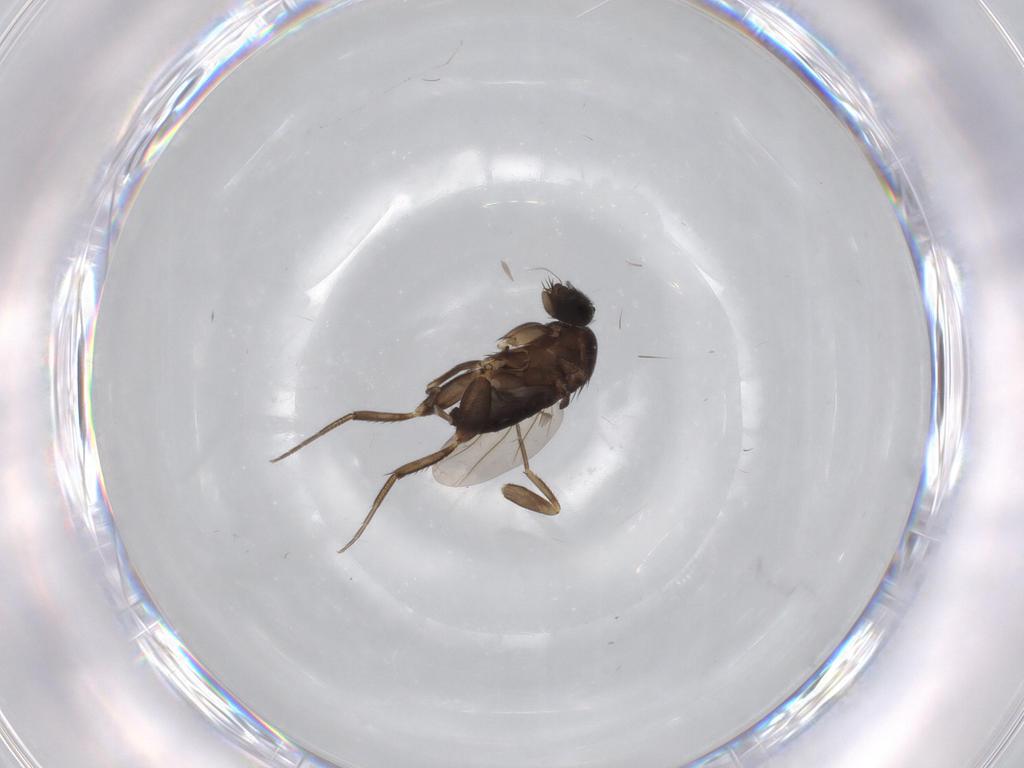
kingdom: Animalia
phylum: Arthropoda
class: Insecta
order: Diptera
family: Phoridae
